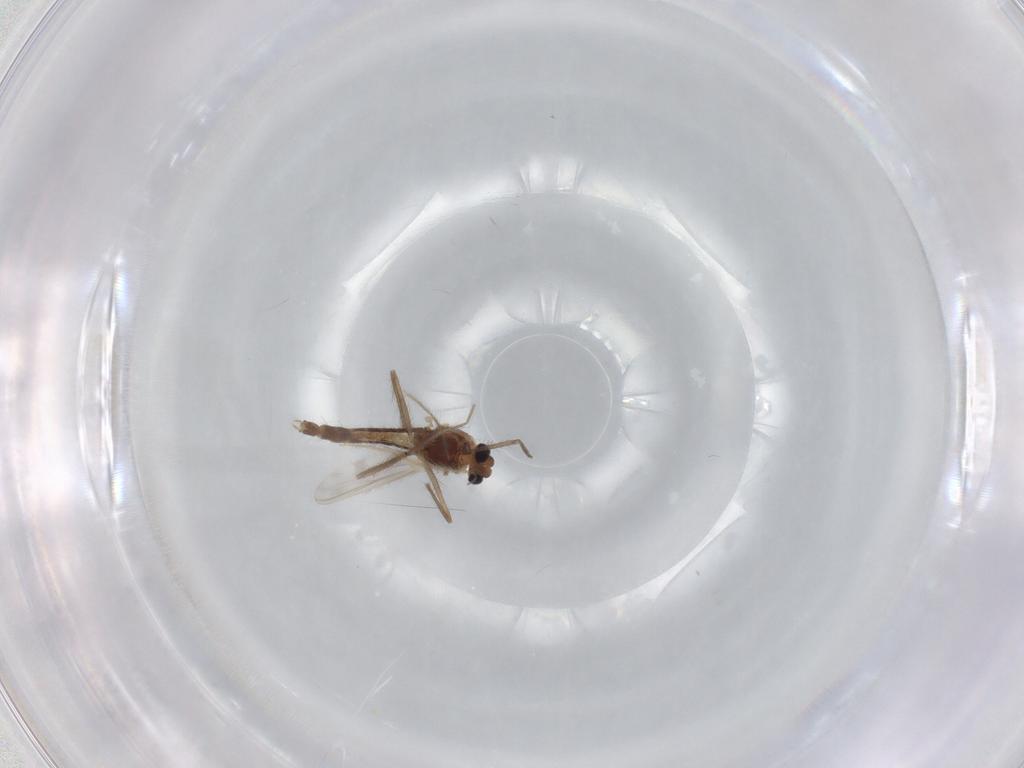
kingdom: Animalia
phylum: Arthropoda
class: Insecta
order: Diptera
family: Chironomidae
